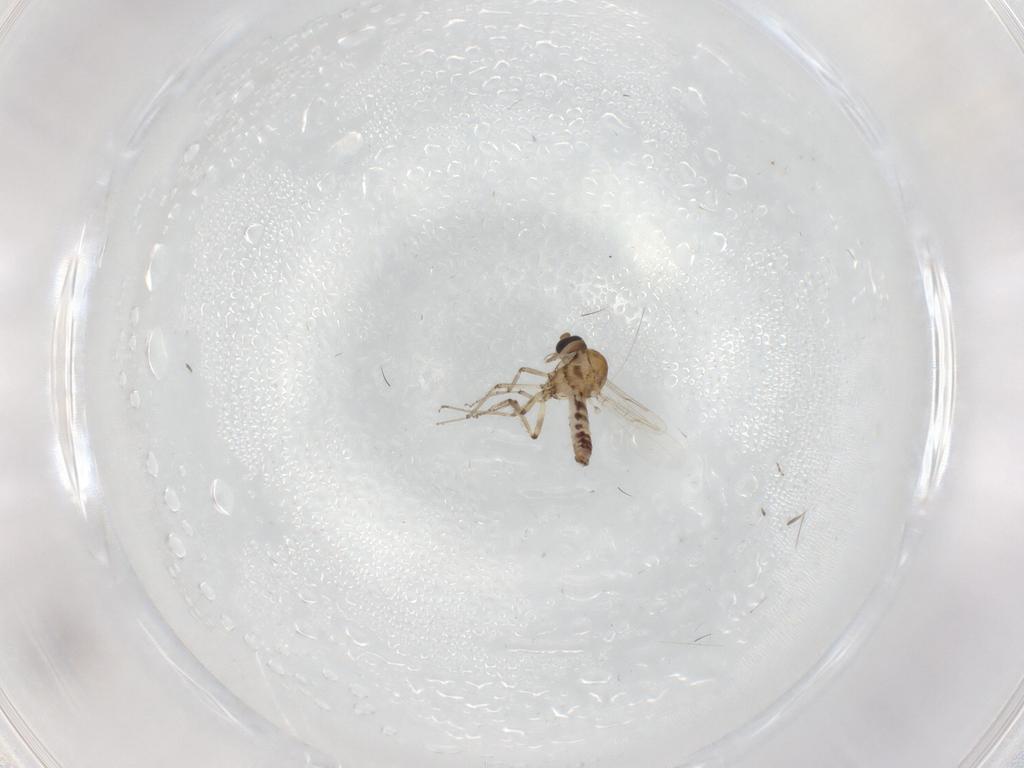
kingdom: Animalia
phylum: Arthropoda
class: Insecta
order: Diptera
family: Ceratopogonidae
